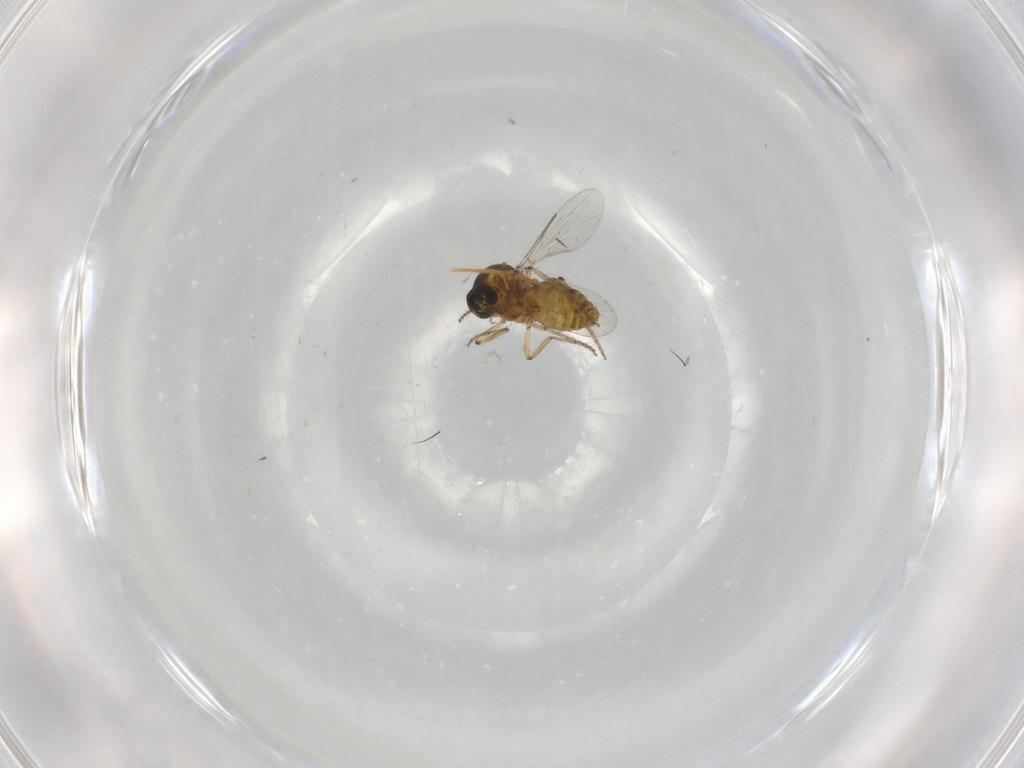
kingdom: Animalia
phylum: Arthropoda
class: Insecta
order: Diptera
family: Ceratopogonidae
